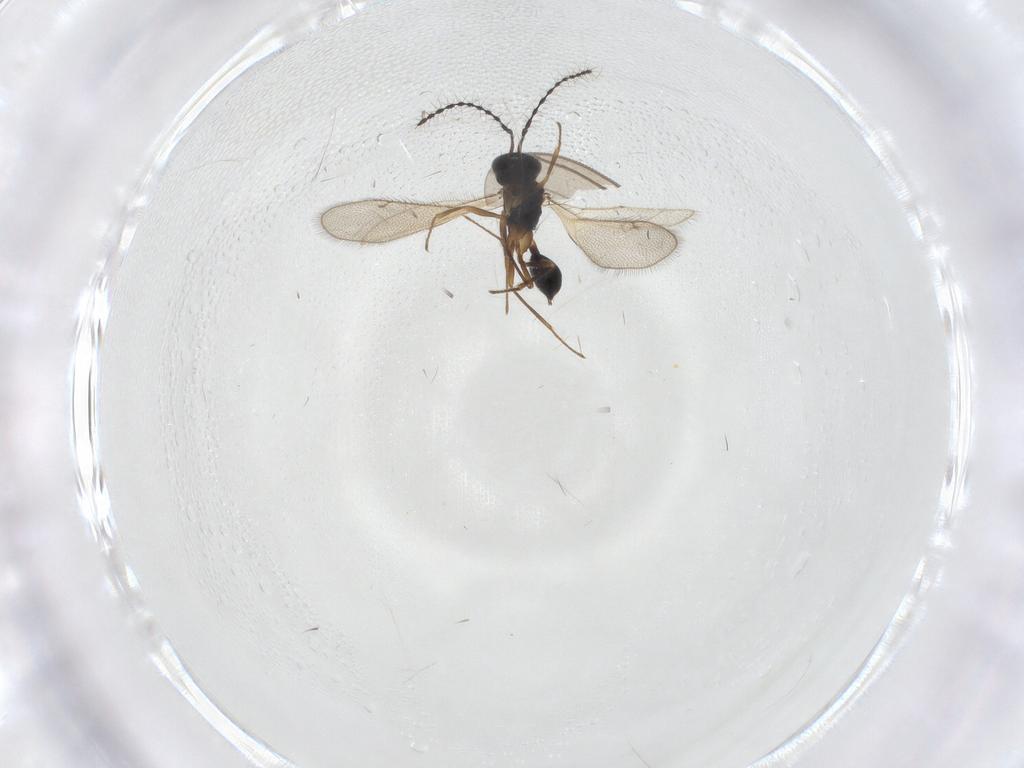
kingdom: Animalia
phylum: Arthropoda
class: Insecta
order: Hymenoptera
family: Diparidae
